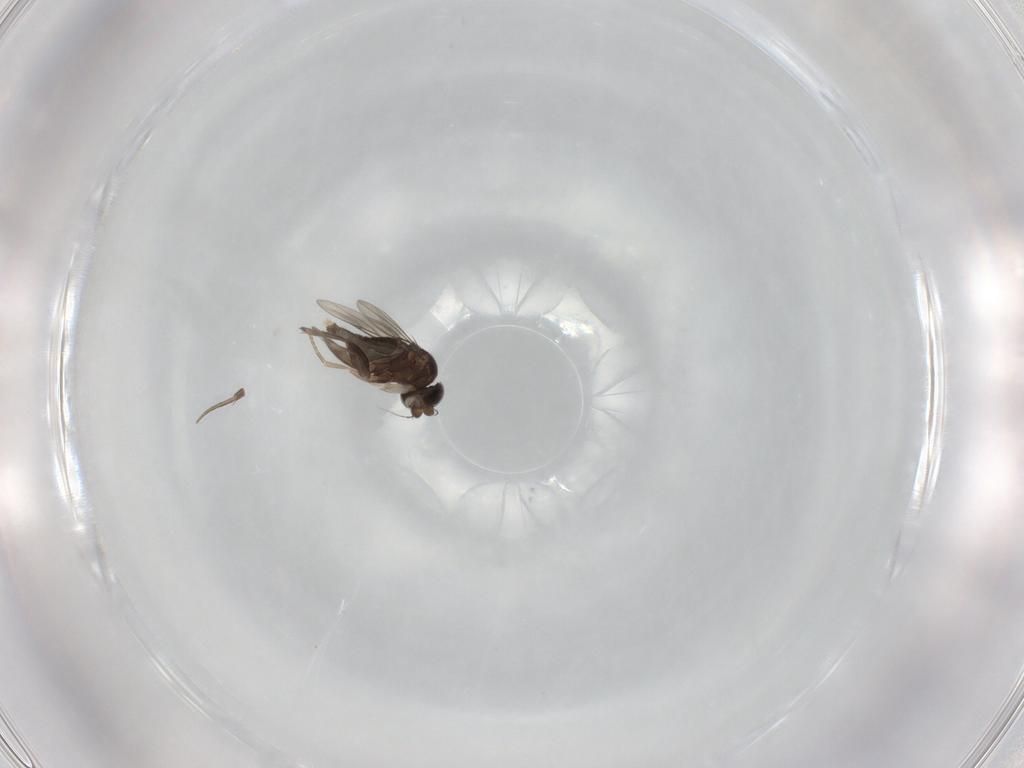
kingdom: Animalia
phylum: Arthropoda
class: Insecta
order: Diptera
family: Phoridae
